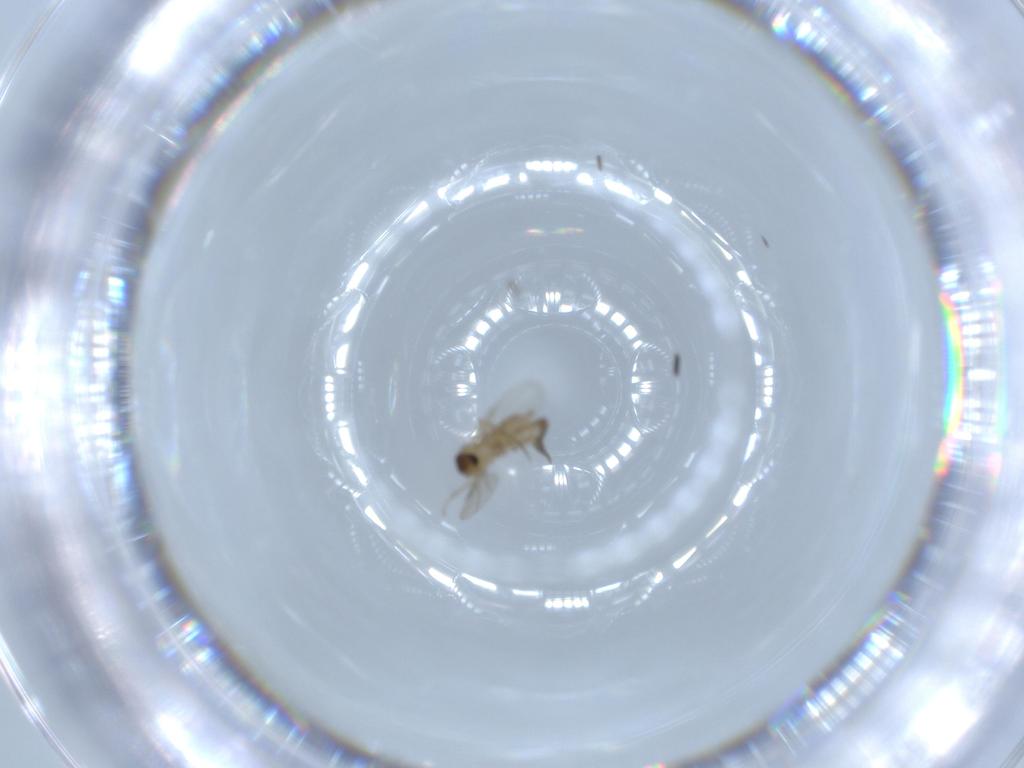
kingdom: Animalia
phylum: Arthropoda
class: Insecta
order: Diptera
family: Phoridae
